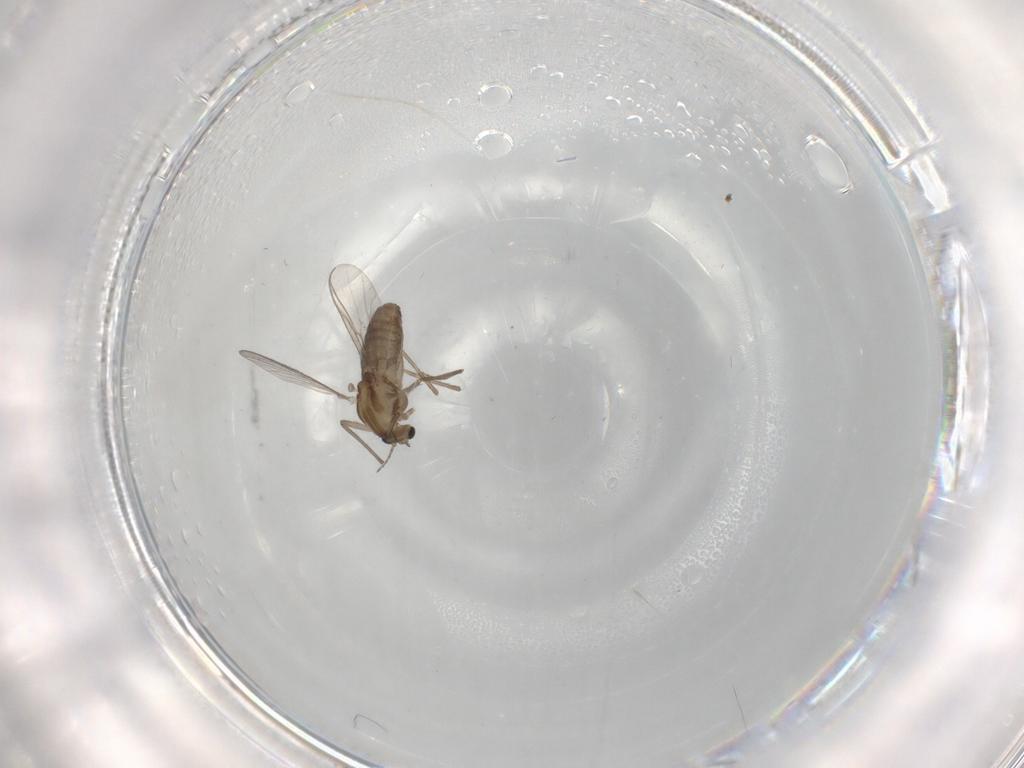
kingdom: Animalia
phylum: Arthropoda
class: Insecta
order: Diptera
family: Chironomidae
